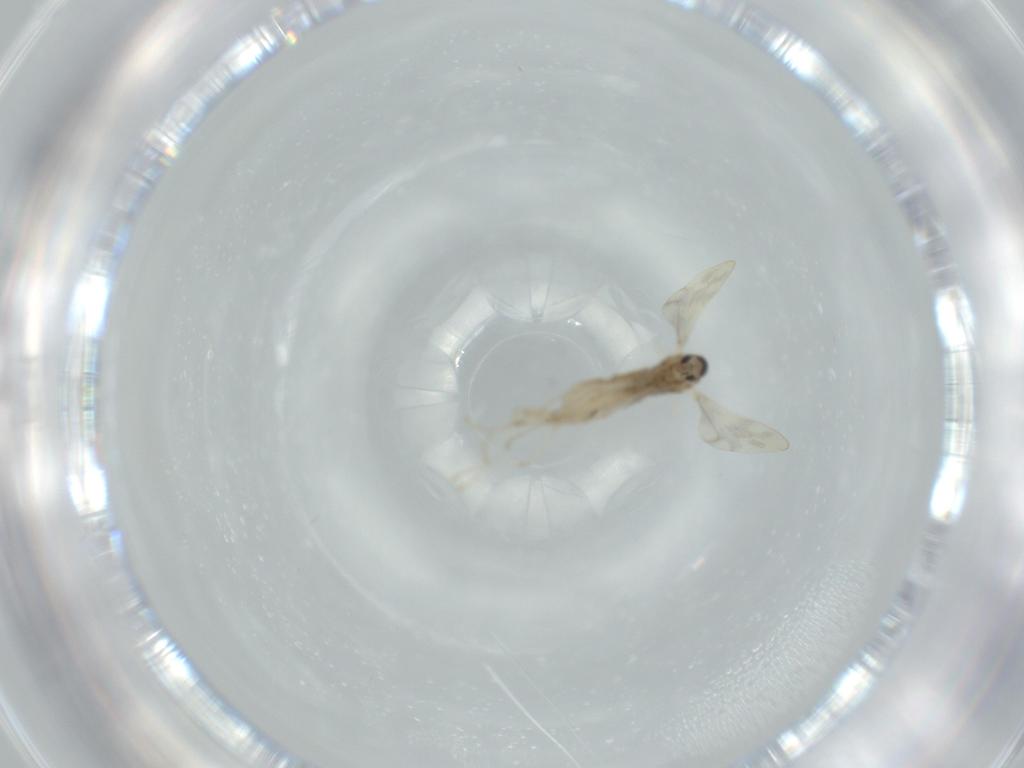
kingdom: Animalia
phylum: Arthropoda
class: Insecta
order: Diptera
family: Cecidomyiidae
